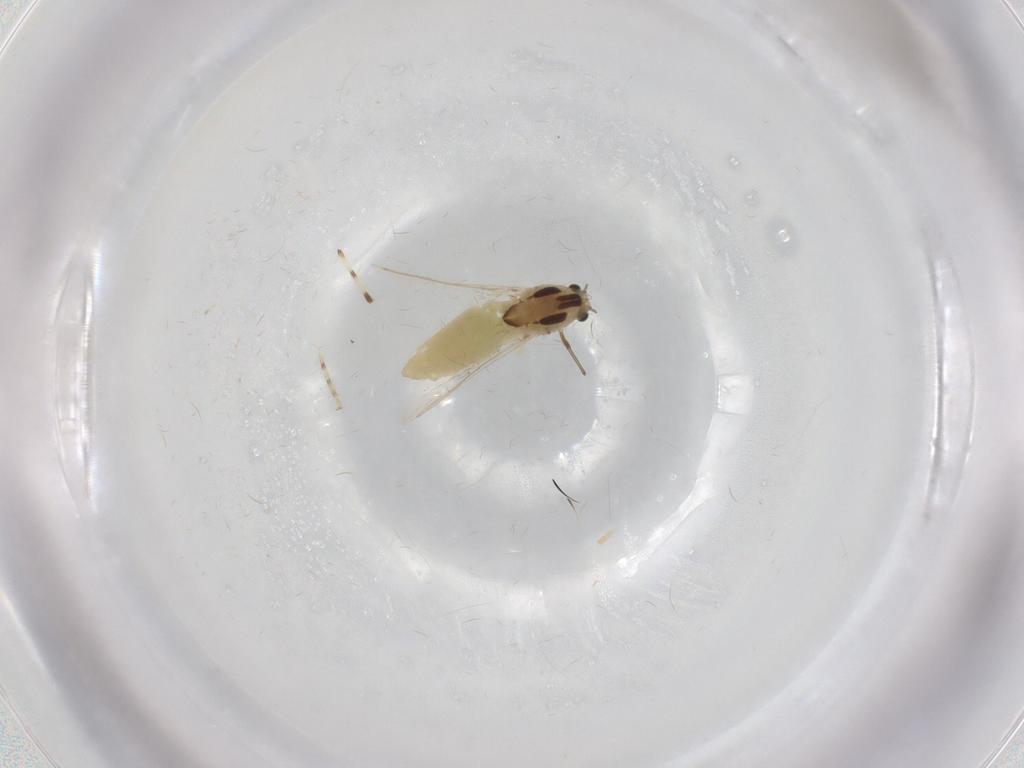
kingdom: Animalia
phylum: Arthropoda
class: Insecta
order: Diptera
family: Chironomidae
